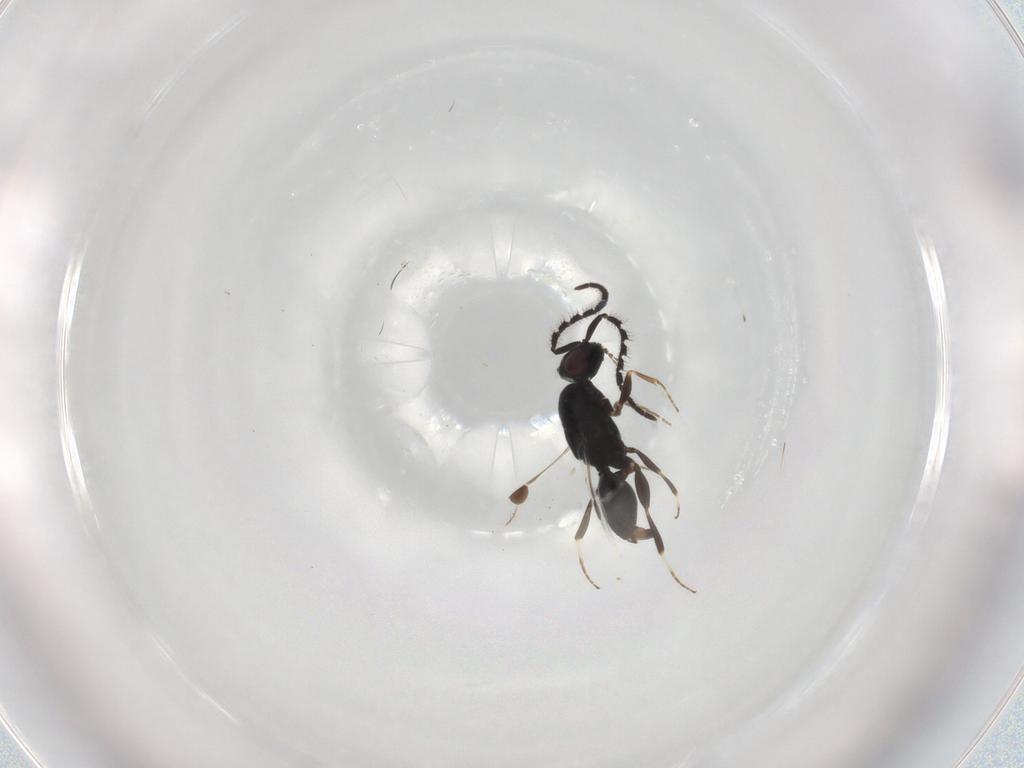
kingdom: Animalia
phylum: Arthropoda
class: Insecta
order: Hymenoptera
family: Megaspilidae
